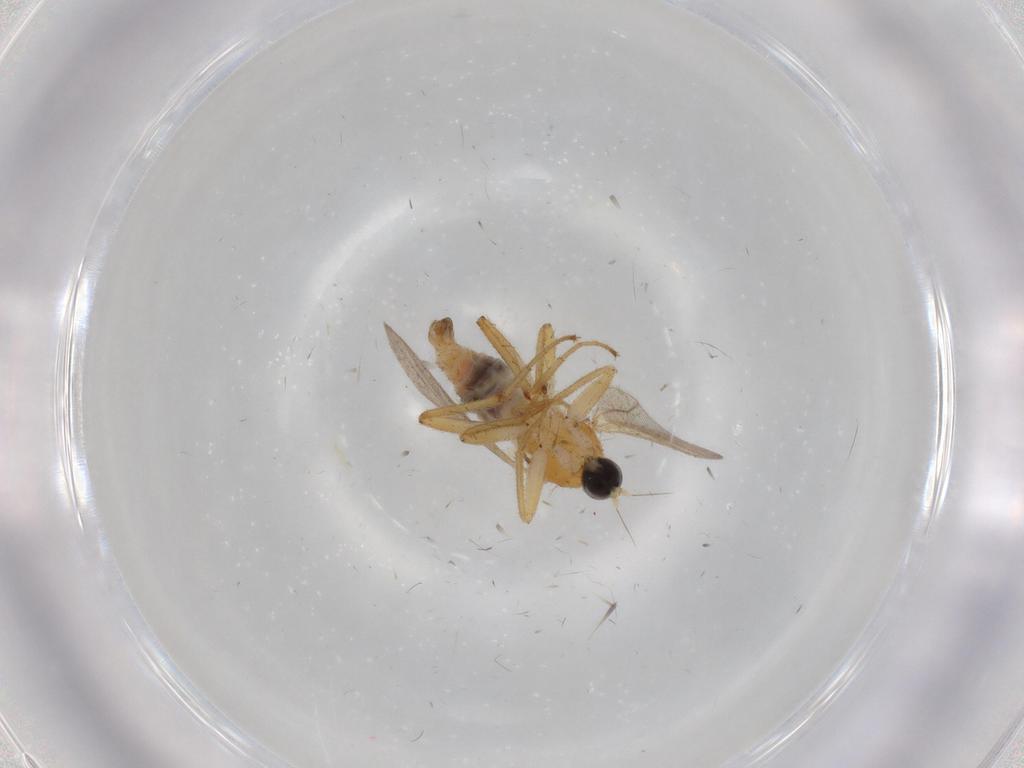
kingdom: Animalia
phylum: Arthropoda
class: Insecta
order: Diptera
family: Hybotidae
